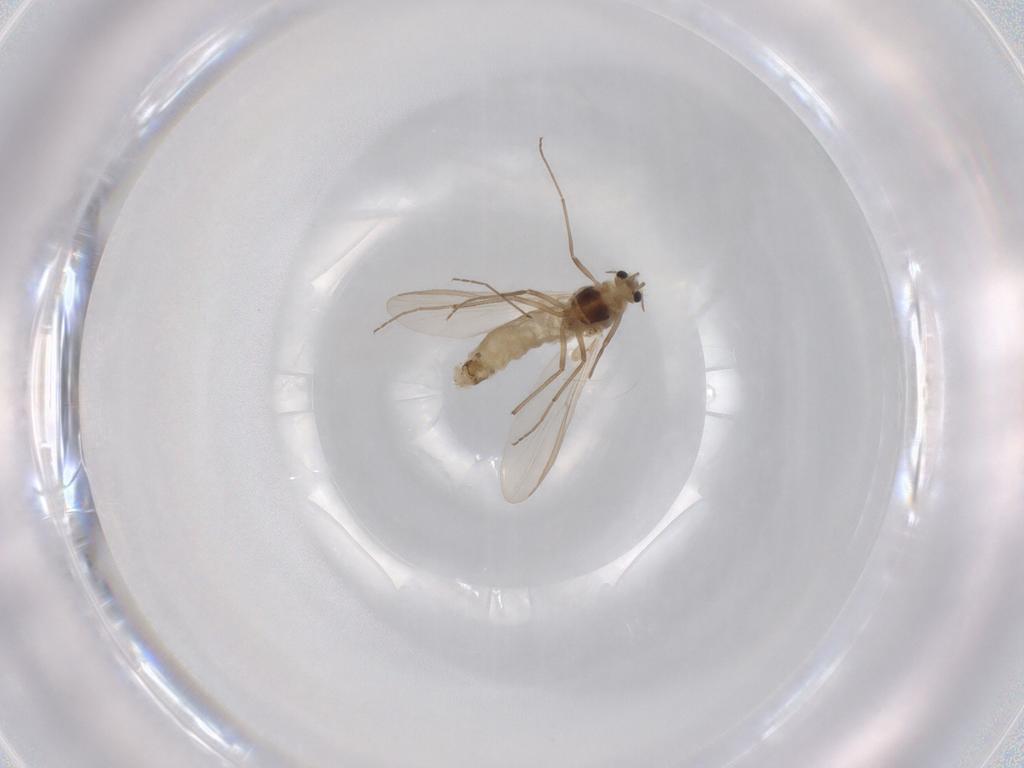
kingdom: Animalia
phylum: Arthropoda
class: Insecta
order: Diptera
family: Chironomidae
